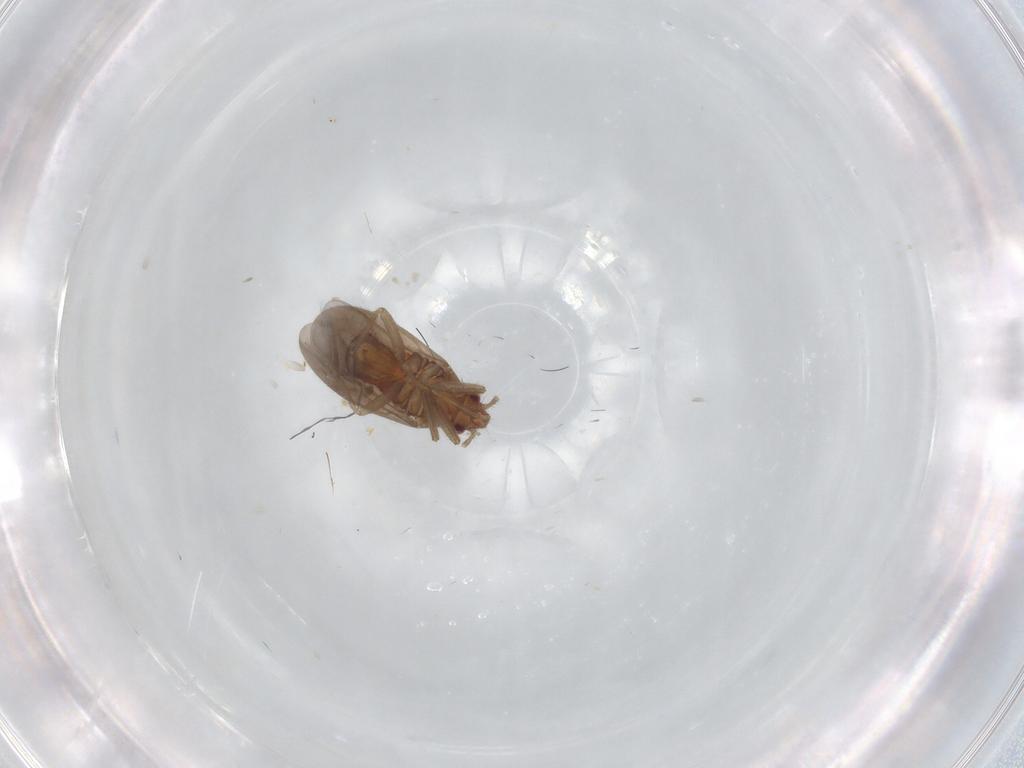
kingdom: Animalia
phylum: Arthropoda
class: Insecta
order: Hemiptera
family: Ceratocombidae
